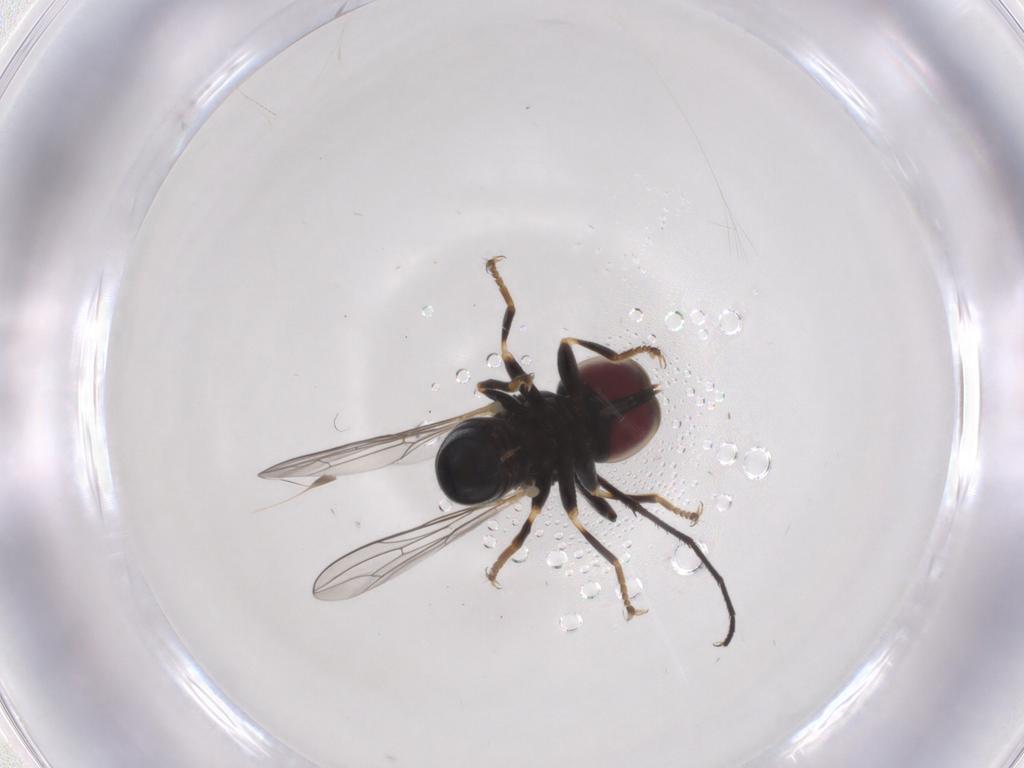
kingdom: Animalia
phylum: Arthropoda
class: Insecta
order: Diptera
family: Pipunculidae
